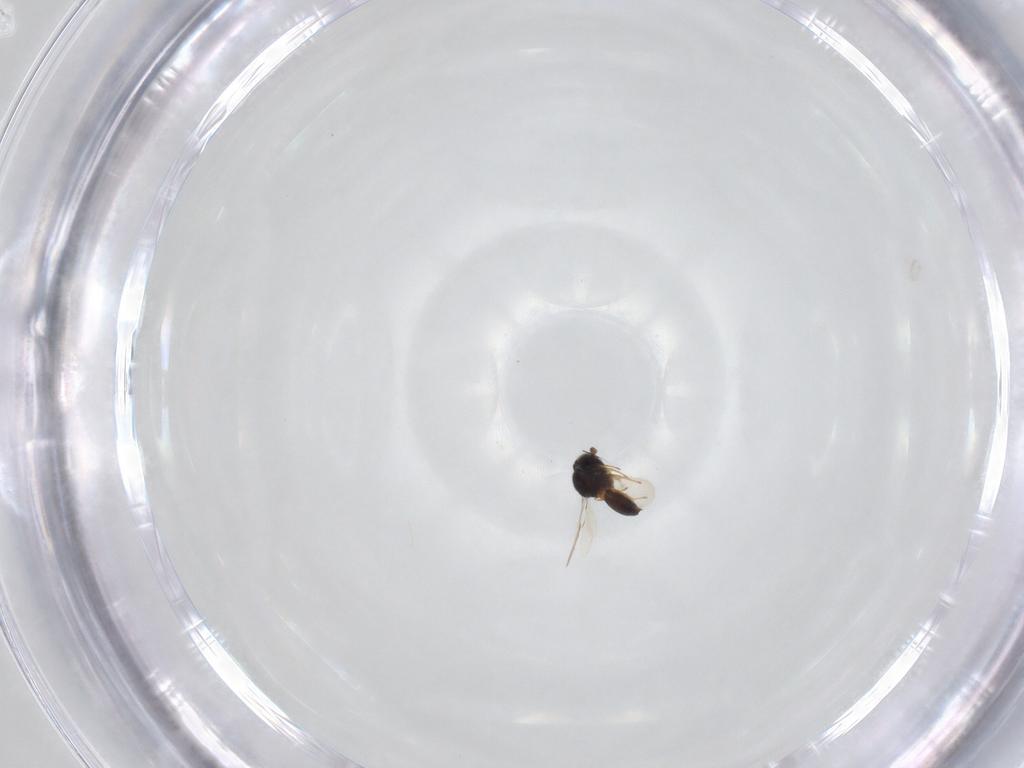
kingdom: Animalia
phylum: Arthropoda
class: Insecta
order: Hymenoptera
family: Scelionidae
